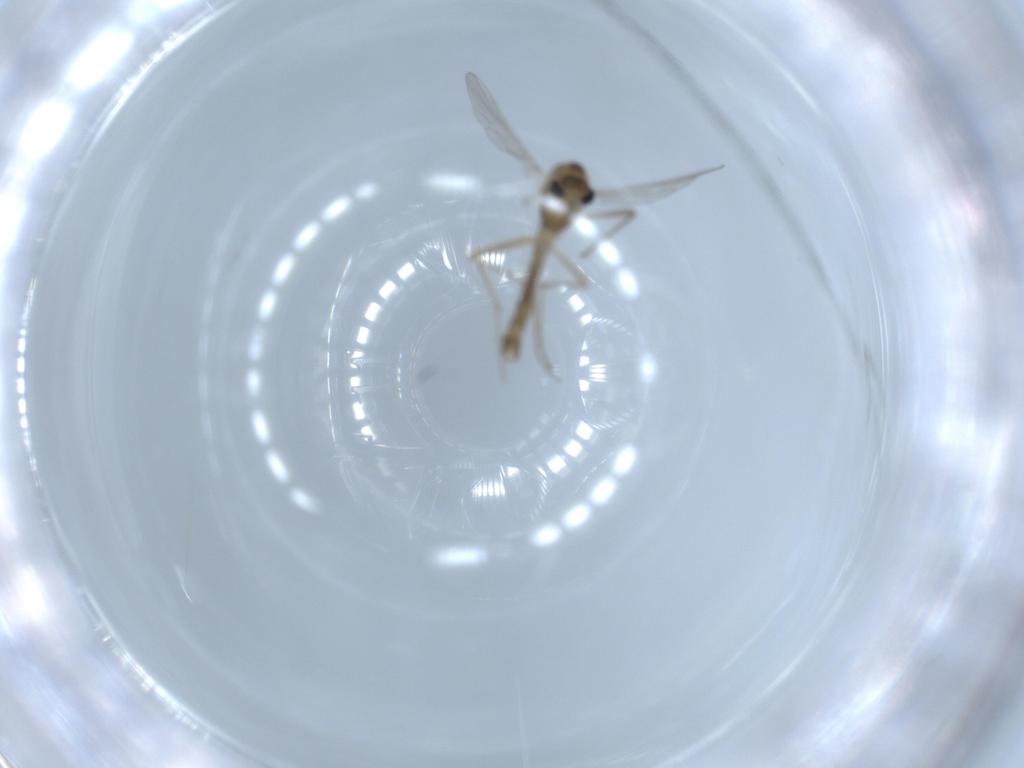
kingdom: Animalia
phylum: Arthropoda
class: Insecta
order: Diptera
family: Chironomidae
